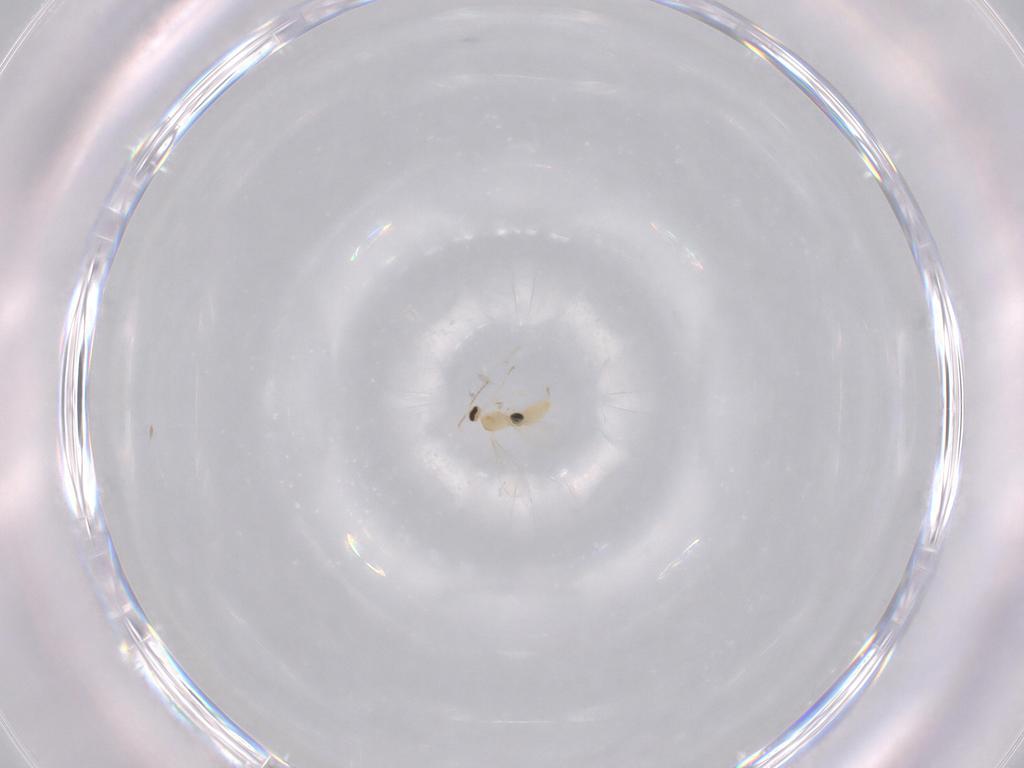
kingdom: Animalia
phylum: Arthropoda
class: Insecta
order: Diptera
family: Cecidomyiidae
